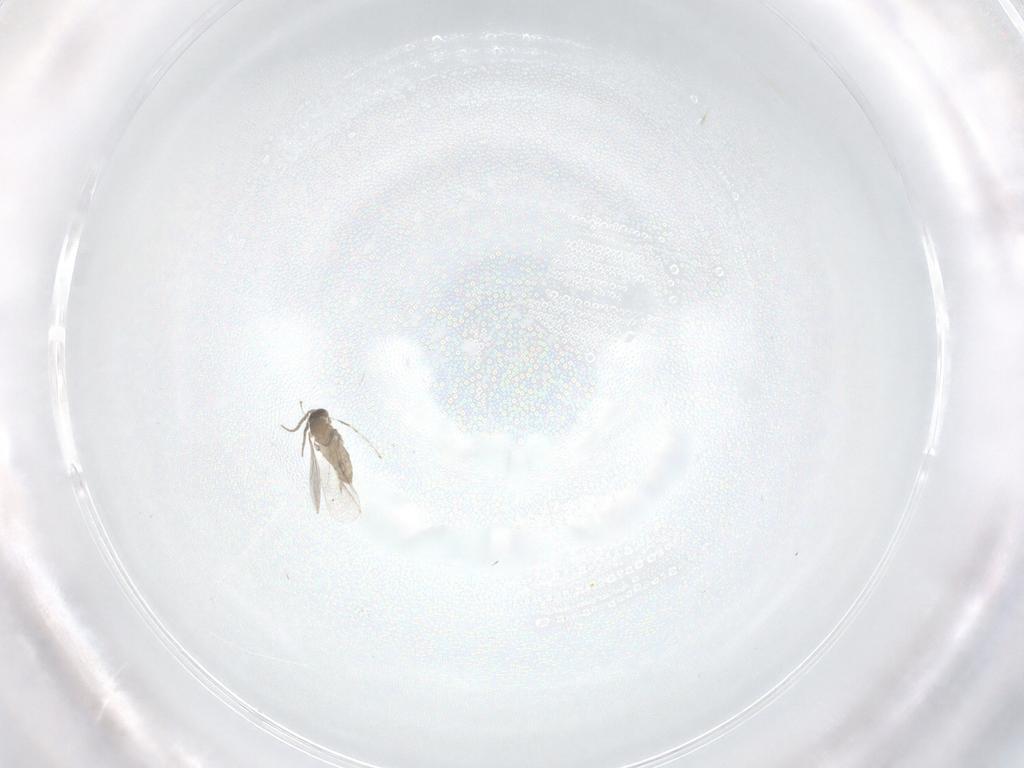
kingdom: Animalia
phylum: Arthropoda
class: Insecta
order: Diptera
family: Cecidomyiidae
